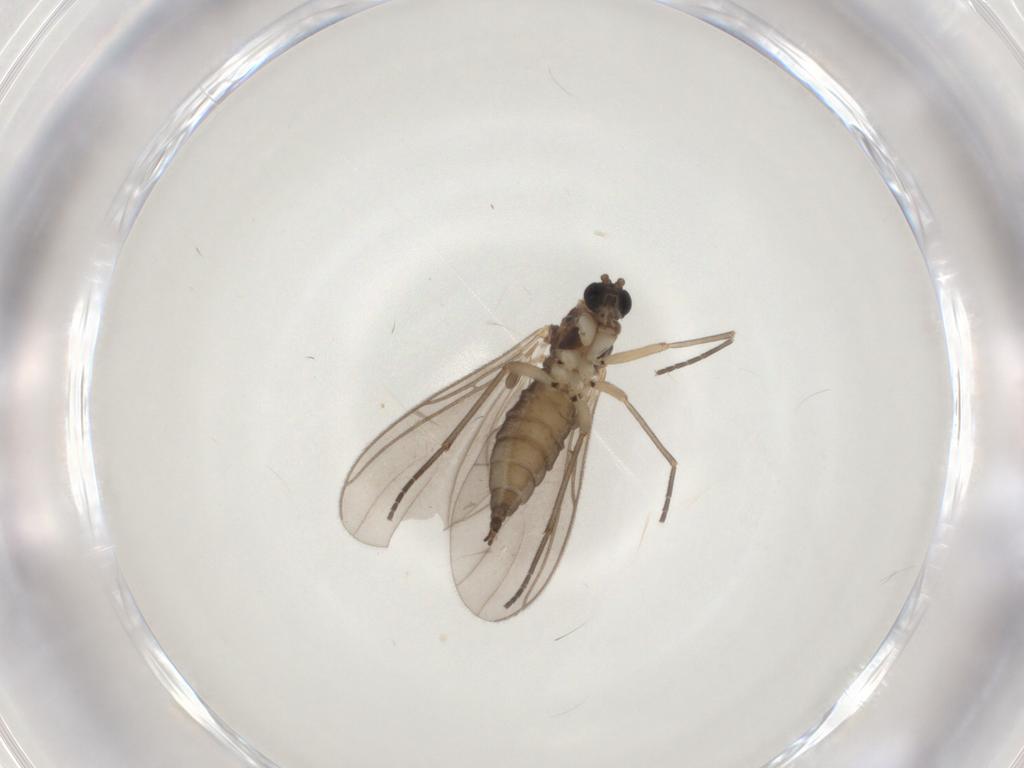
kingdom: Animalia
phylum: Arthropoda
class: Insecta
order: Diptera
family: Sciaridae
